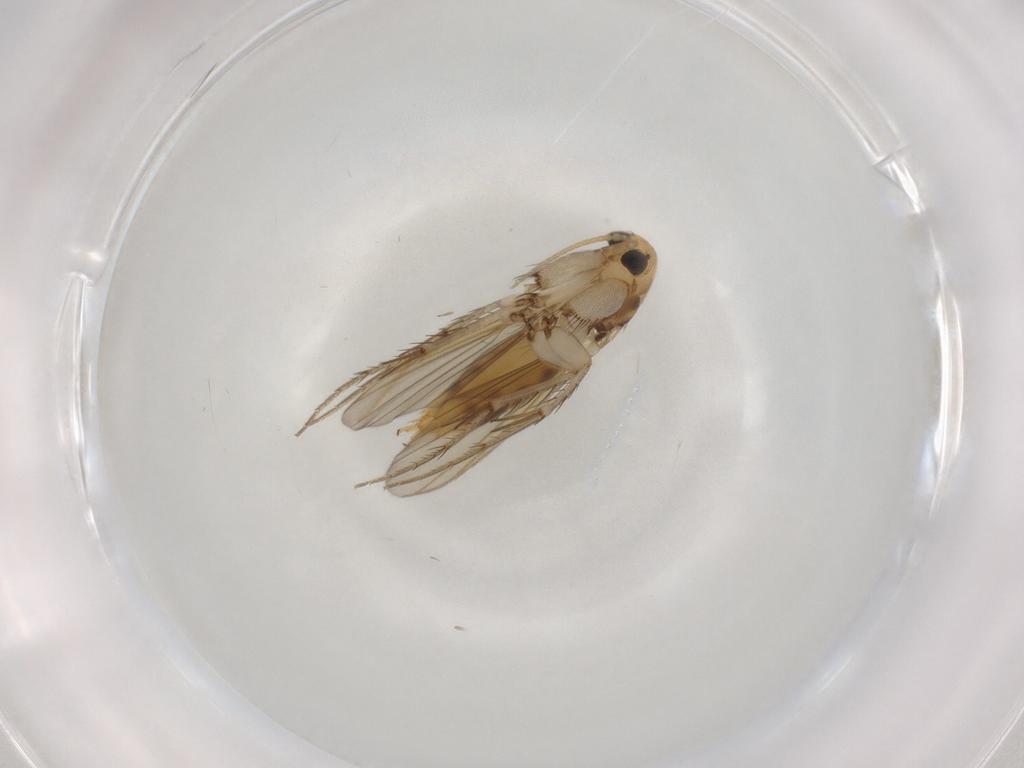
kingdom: Animalia
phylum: Arthropoda
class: Insecta
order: Diptera
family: Mycetophilidae
